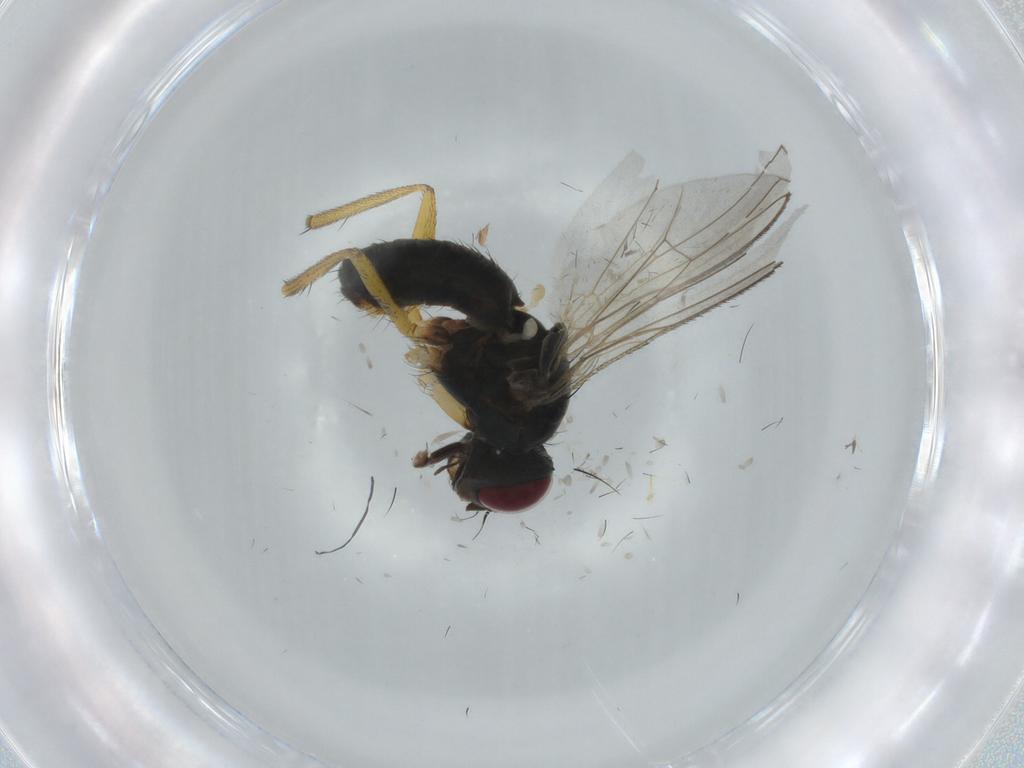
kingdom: Animalia
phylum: Arthropoda
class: Insecta
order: Diptera
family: Muscidae
